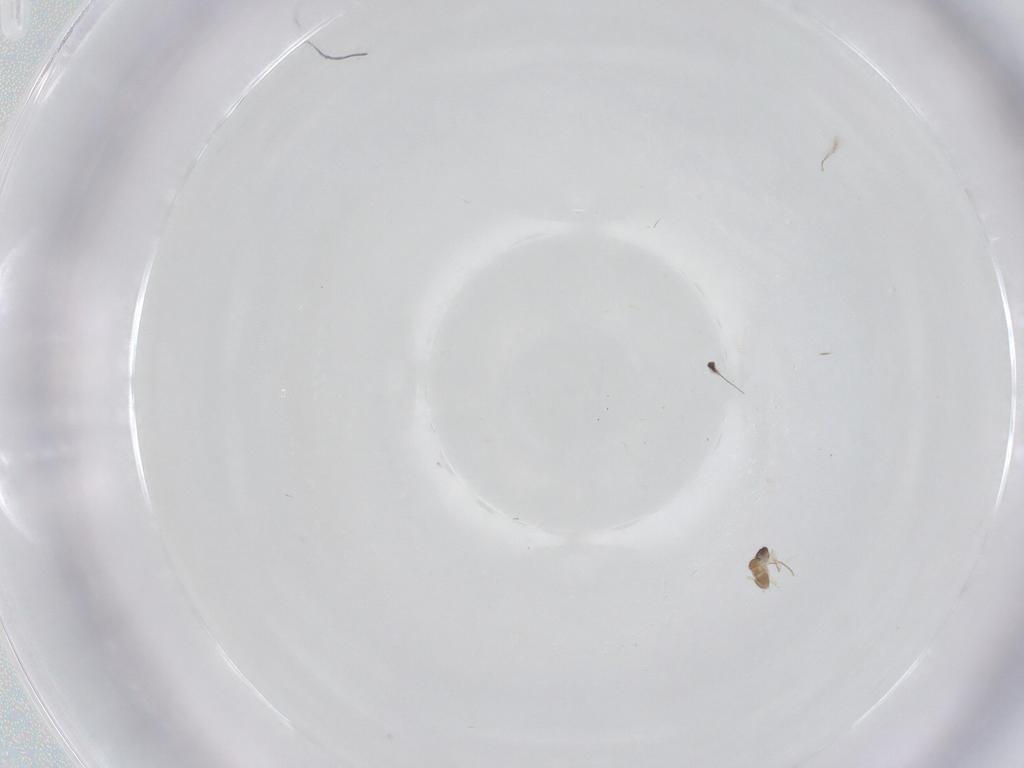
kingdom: Animalia
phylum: Arthropoda
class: Insecta
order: Diptera
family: Dolichopodidae
